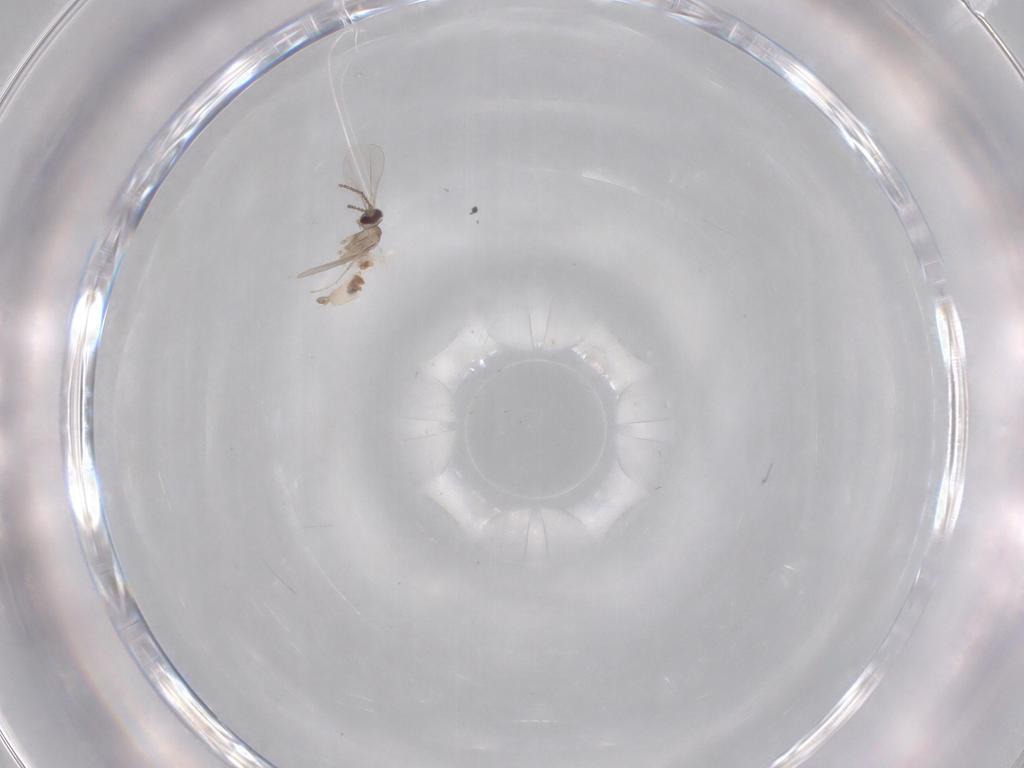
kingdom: Animalia
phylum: Arthropoda
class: Insecta
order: Diptera
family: Cecidomyiidae
